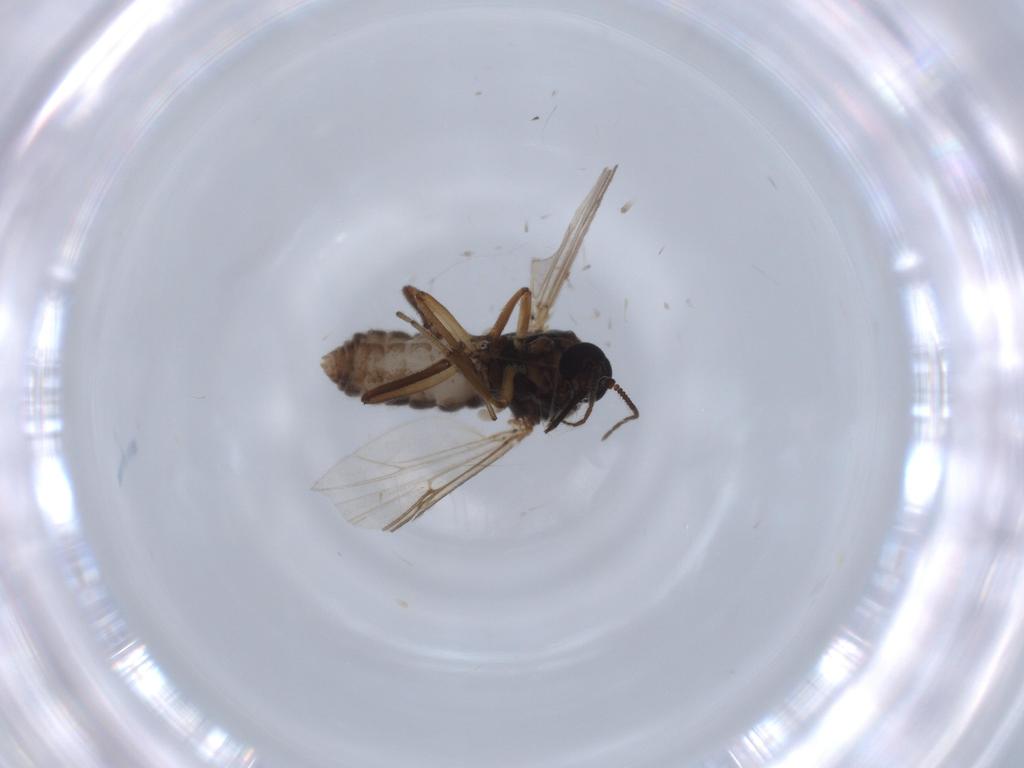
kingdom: Animalia
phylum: Arthropoda
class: Insecta
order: Diptera
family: Ceratopogonidae
